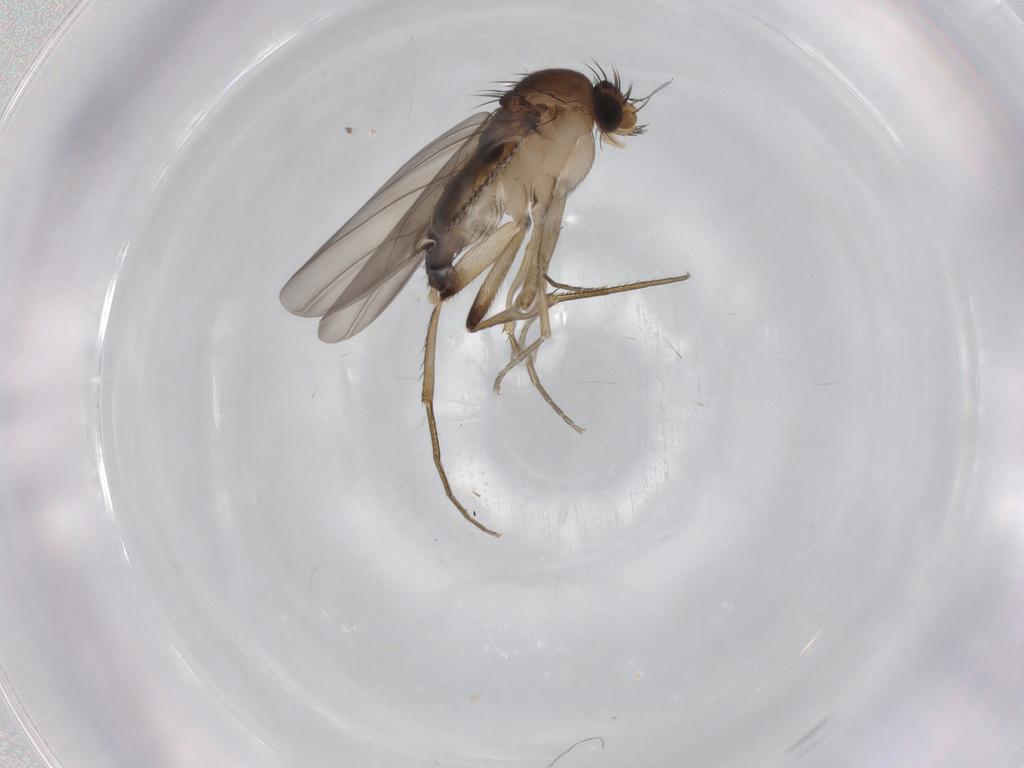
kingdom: Animalia
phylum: Arthropoda
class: Insecta
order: Diptera
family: Phoridae
